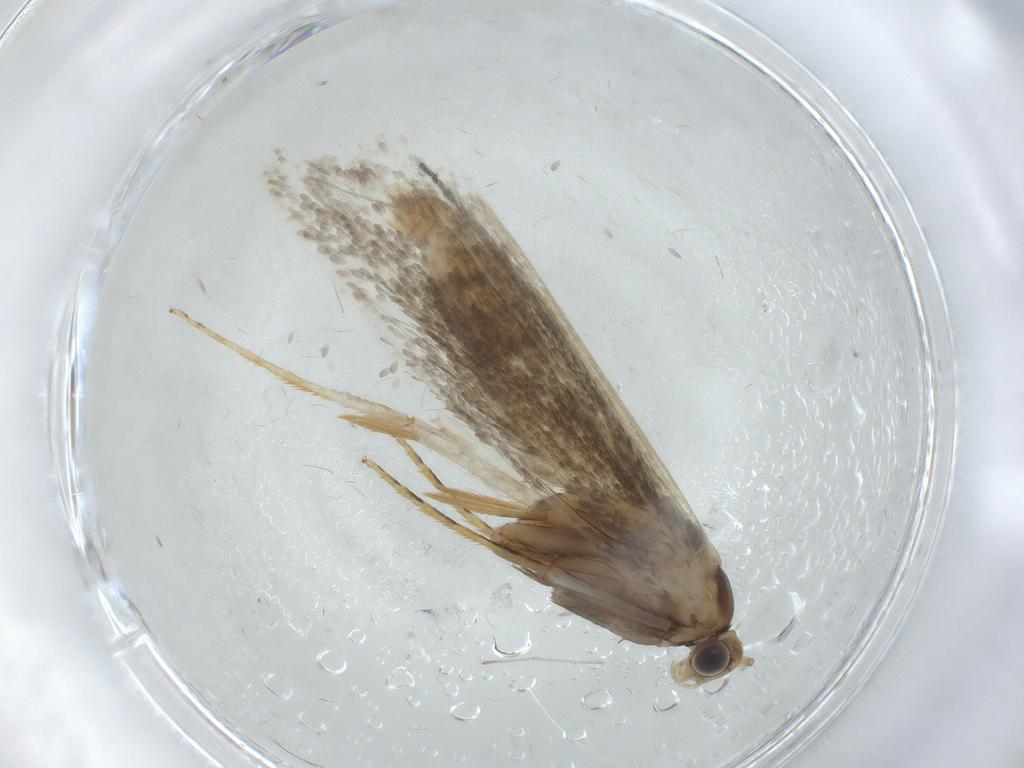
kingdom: Animalia
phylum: Arthropoda
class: Insecta
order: Lepidoptera
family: Tineidae
